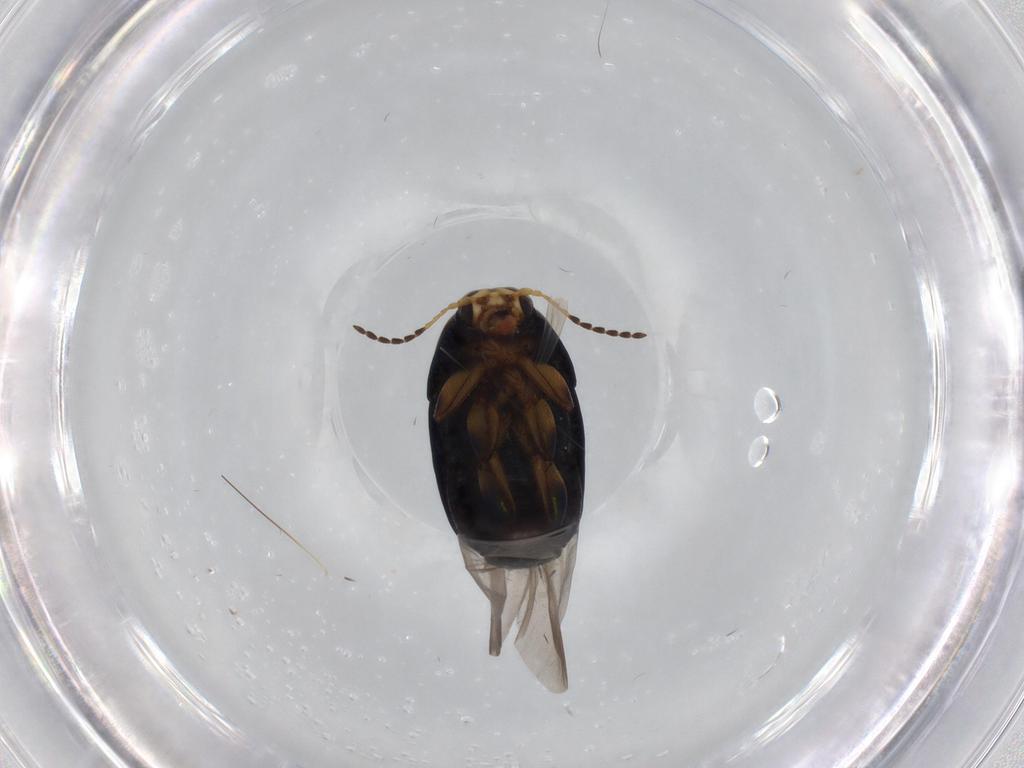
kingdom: Animalia
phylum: Arthropoda
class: Insecta
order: Coleoptera
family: Chrysomelidae
